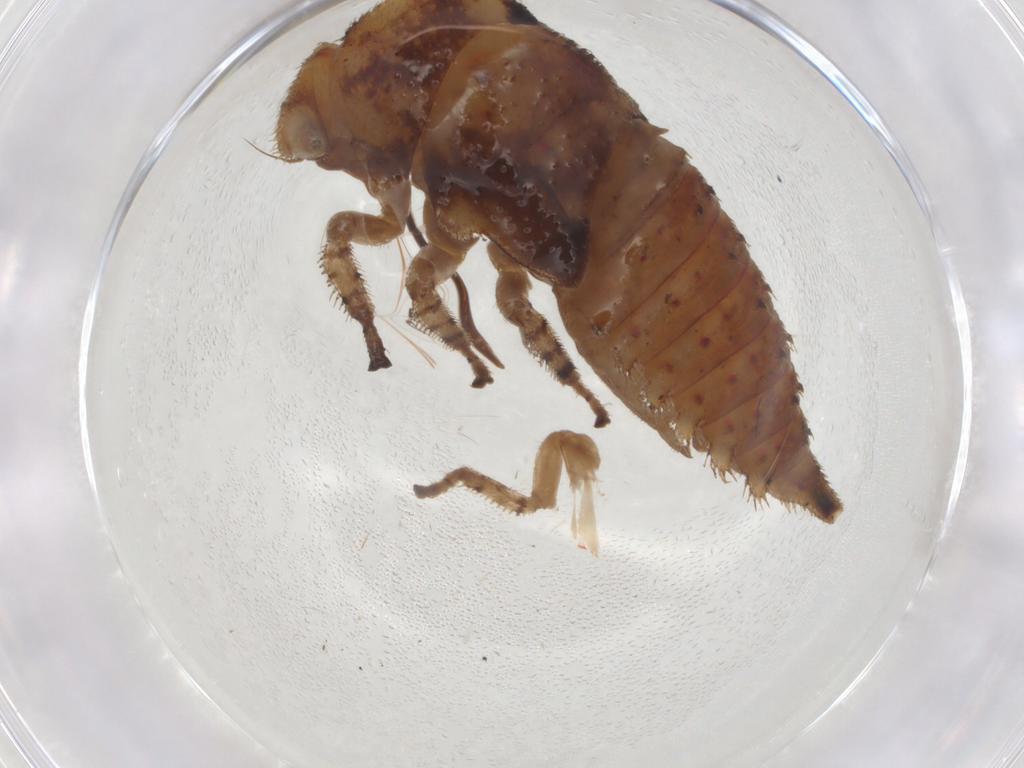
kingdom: Animalia
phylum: Arthropoda
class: Insecta
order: Hemiptera
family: Membracidae
